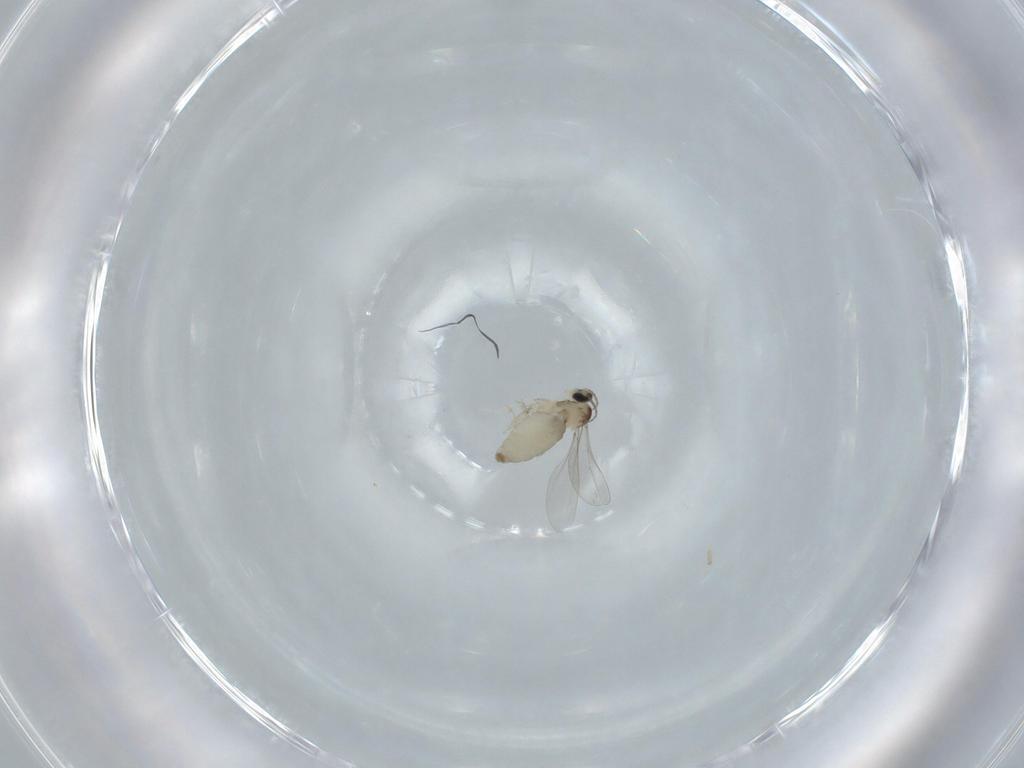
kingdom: Animalia
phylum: Arthropoda
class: Insecta
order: Diptera
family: Cecidomyiidae
